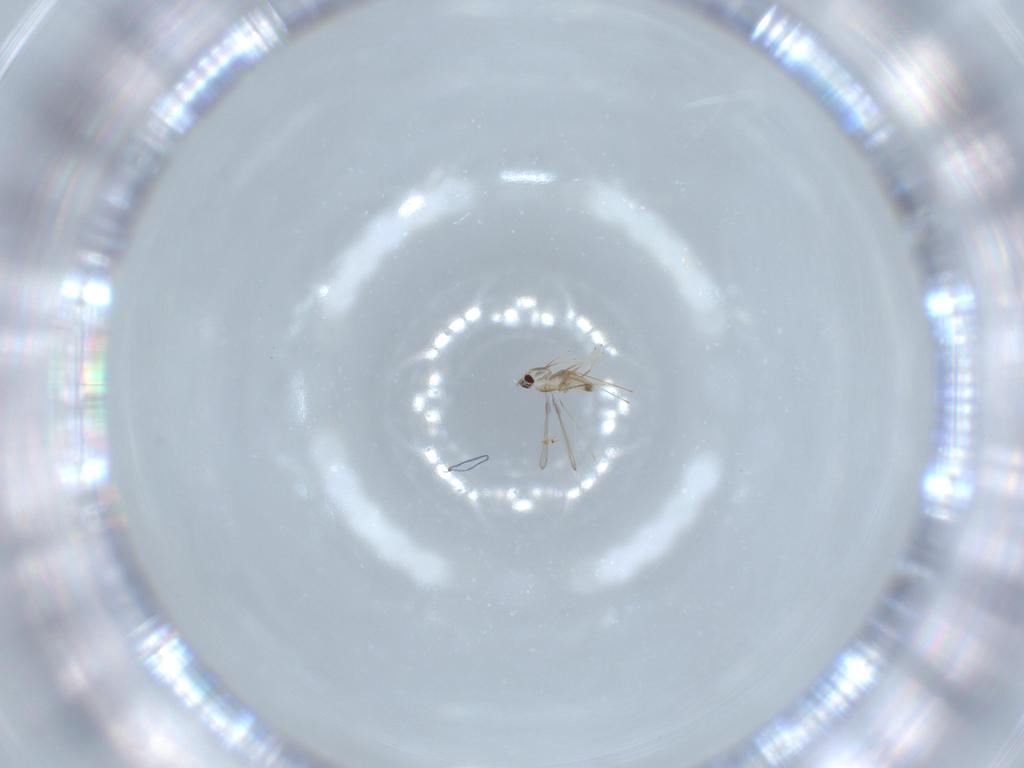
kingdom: Animalia
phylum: Arthropoda
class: Insecta
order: Hymenoptera
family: Mymaridae
